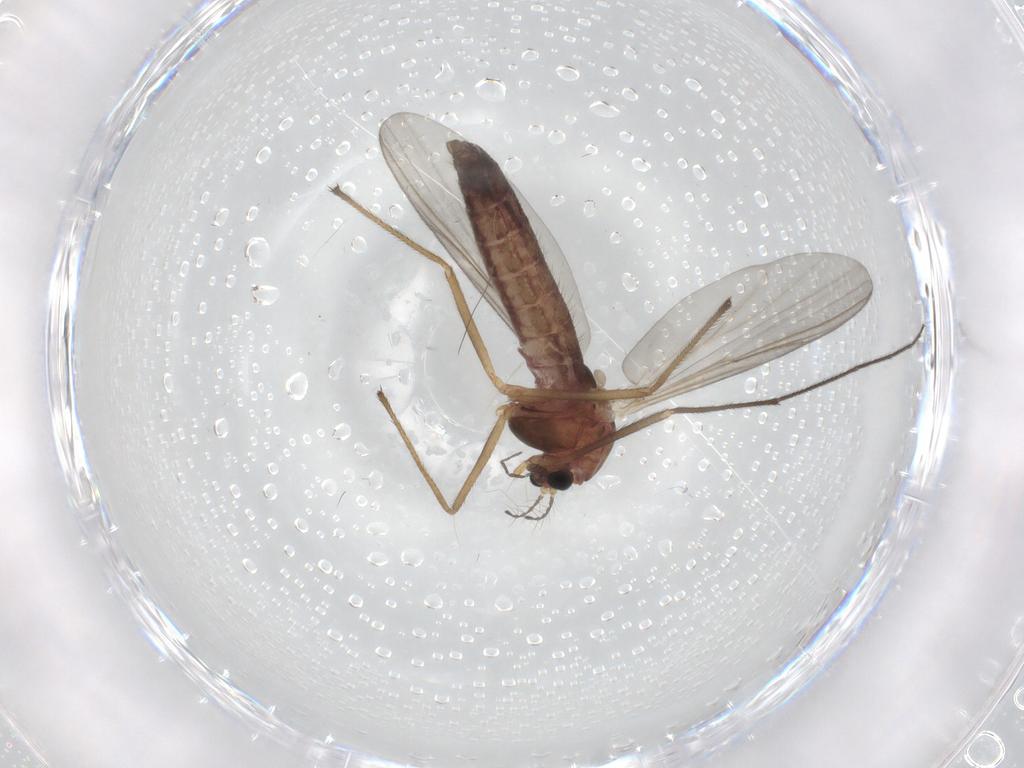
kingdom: Animalia
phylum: Arthropoda
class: Insecta
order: Diptera
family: Chironomidae
